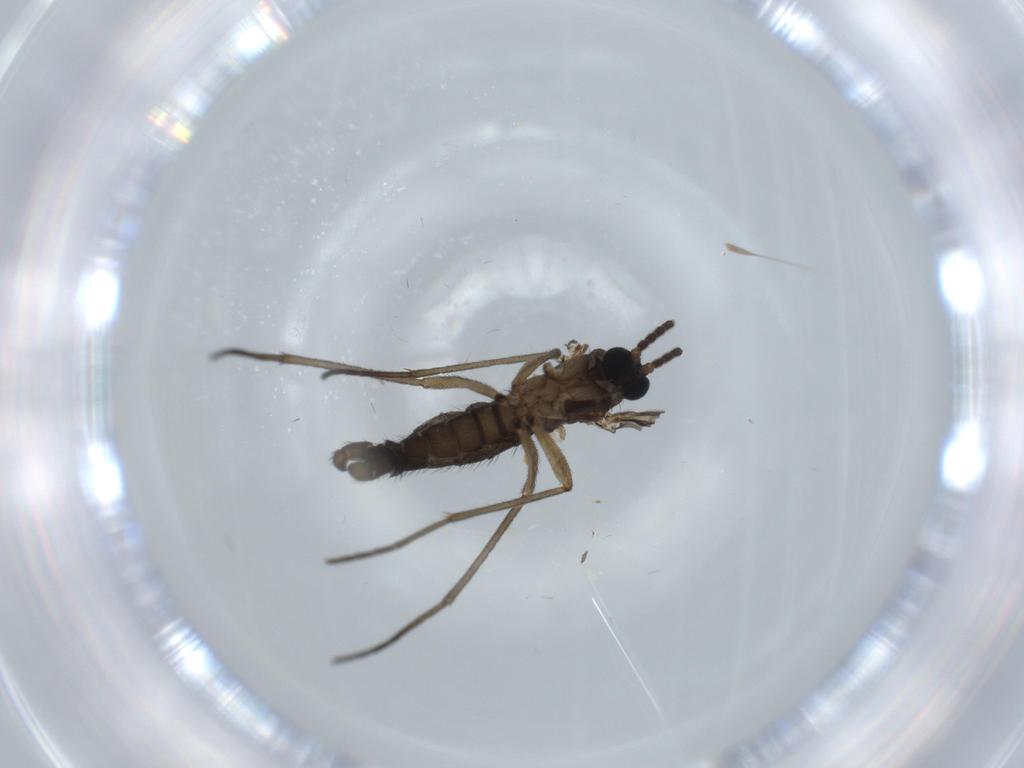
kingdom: Animalia
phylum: Arthropoda
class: Insecta
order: Diptera
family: Sciaridae
